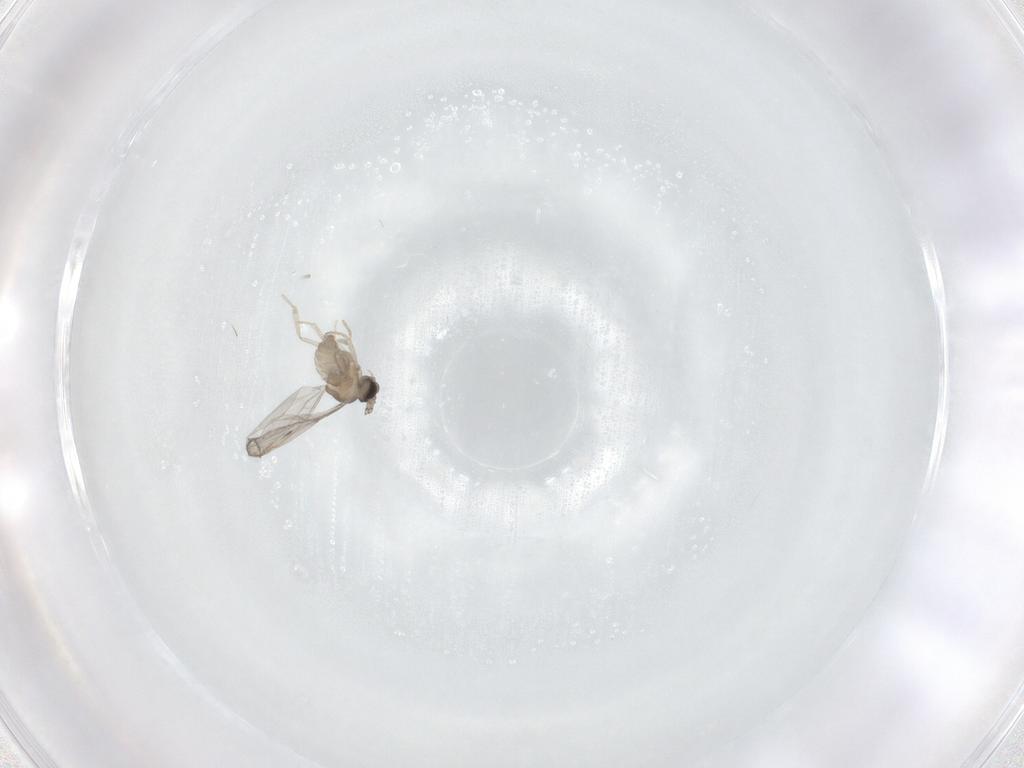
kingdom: Animalia
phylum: Arthropoda
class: Insecta
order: Diptera
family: Cecidomyiidae
